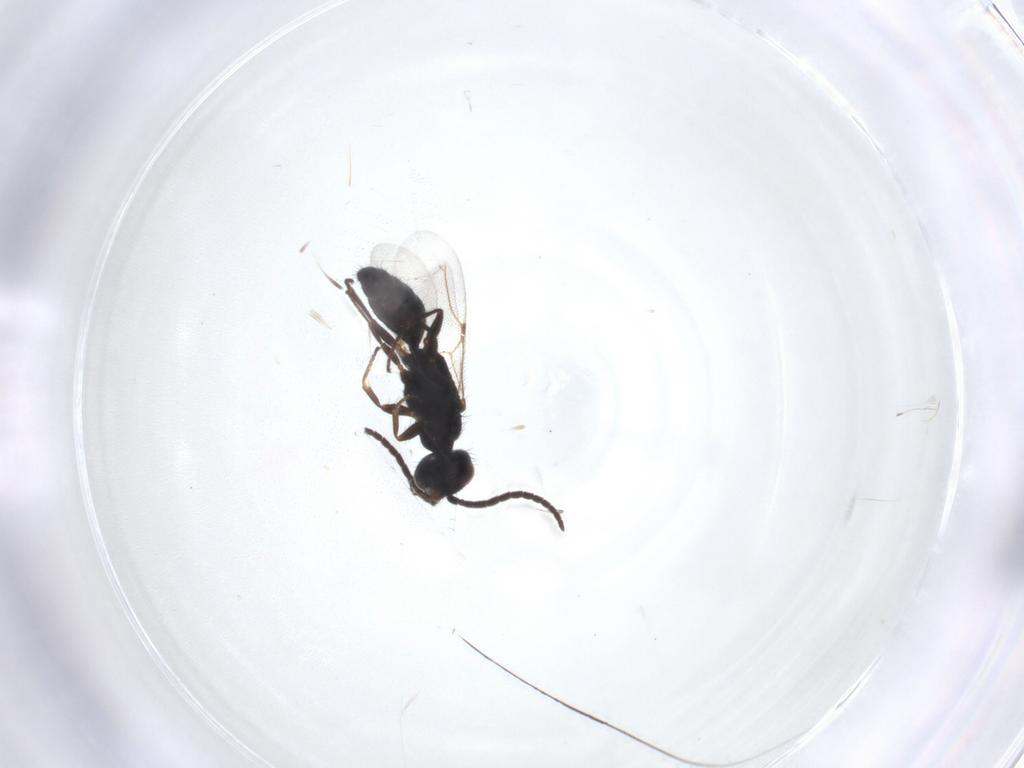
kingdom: Animalia
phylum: Arthropoda
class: Insecta
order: Hymenoptera
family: Bethylidae
